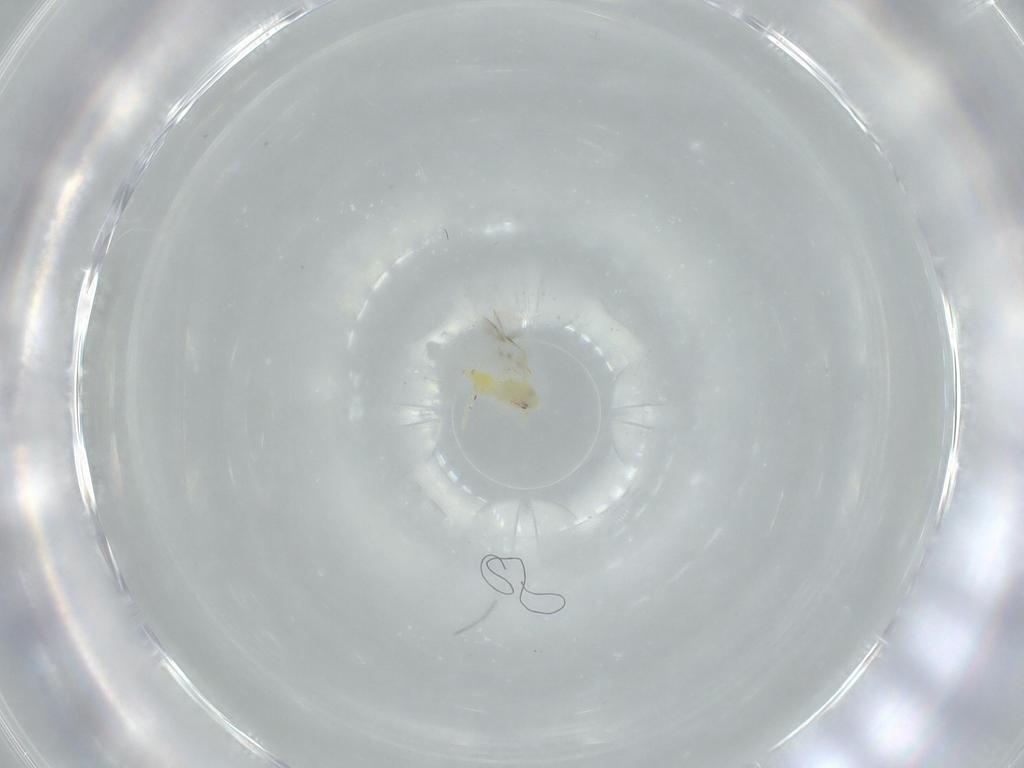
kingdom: Animalia
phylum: Arthropoda
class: Insecta
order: Hemiptera
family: Aleyrodidae
